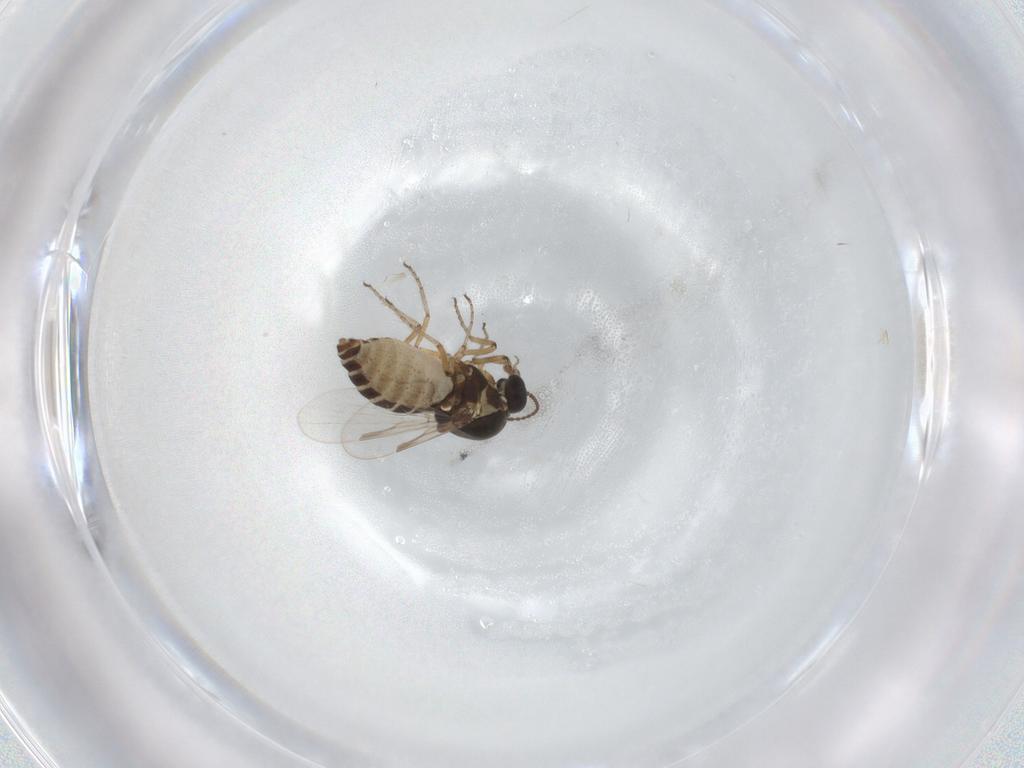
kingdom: Animalia
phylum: Arthropoda
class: Insecta
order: Diptera
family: Ceratopogonidae
